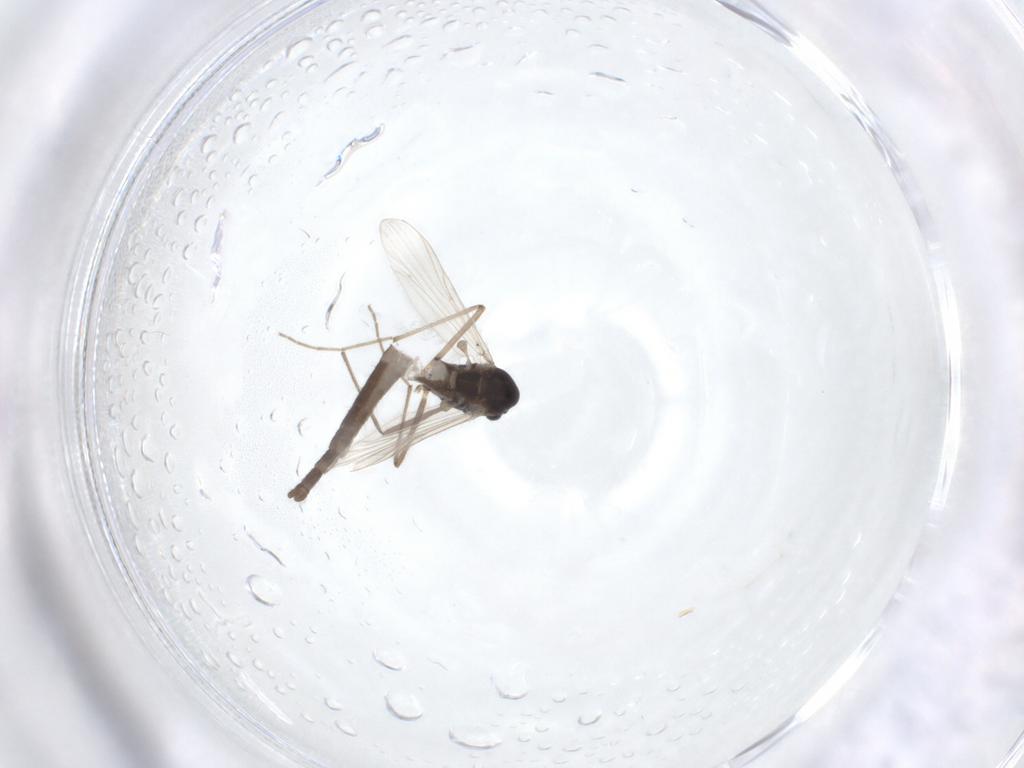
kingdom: Animalia
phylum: Arthropoda
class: Insecta
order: Diptera
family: Chironomidae
